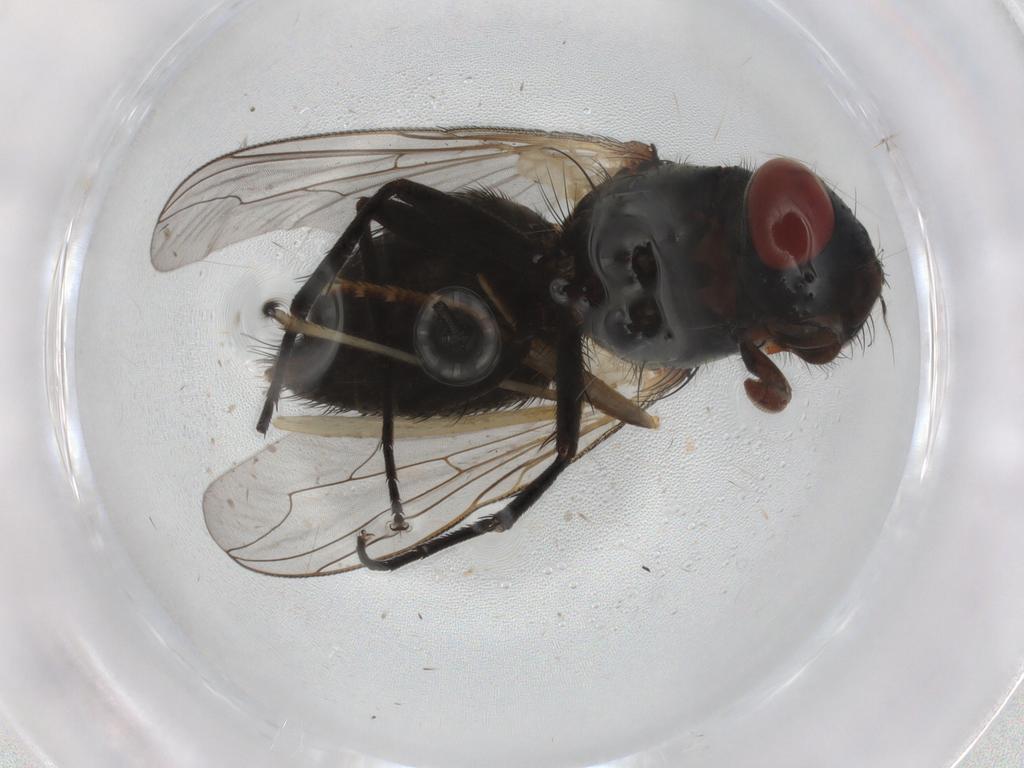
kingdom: Animalia
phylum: Arthropoda
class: Insecta
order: Diptera
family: Sarcophagidae
